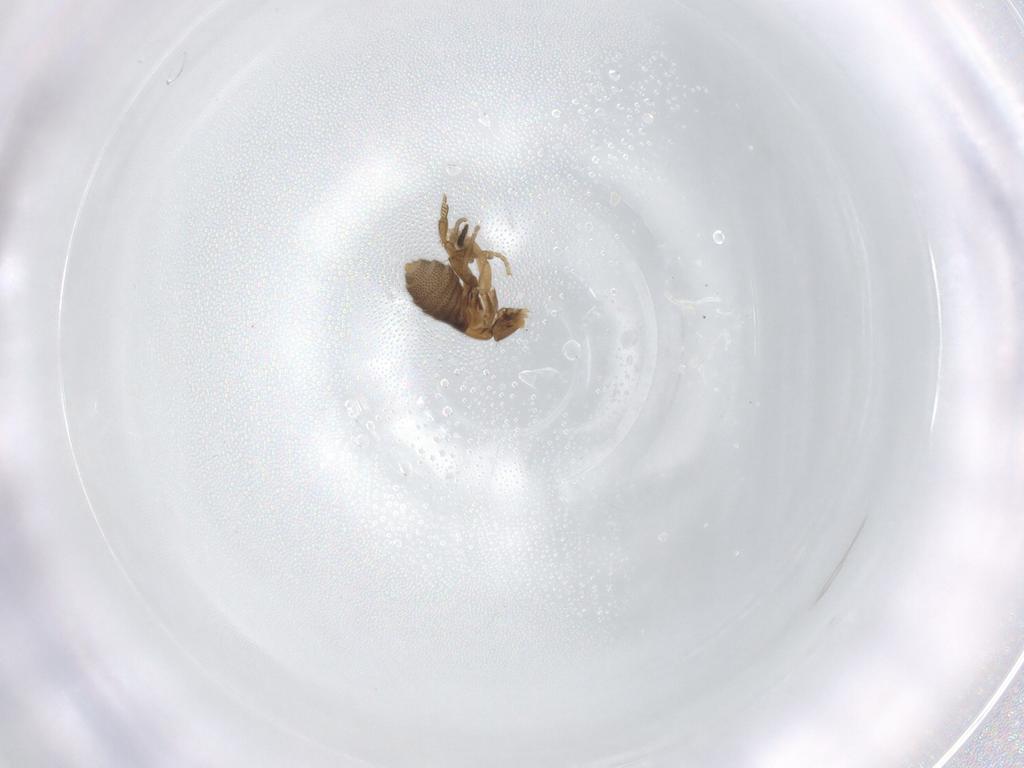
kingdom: Animalia
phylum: Arthropoda
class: Insecta
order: Diptera
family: Phoridae
